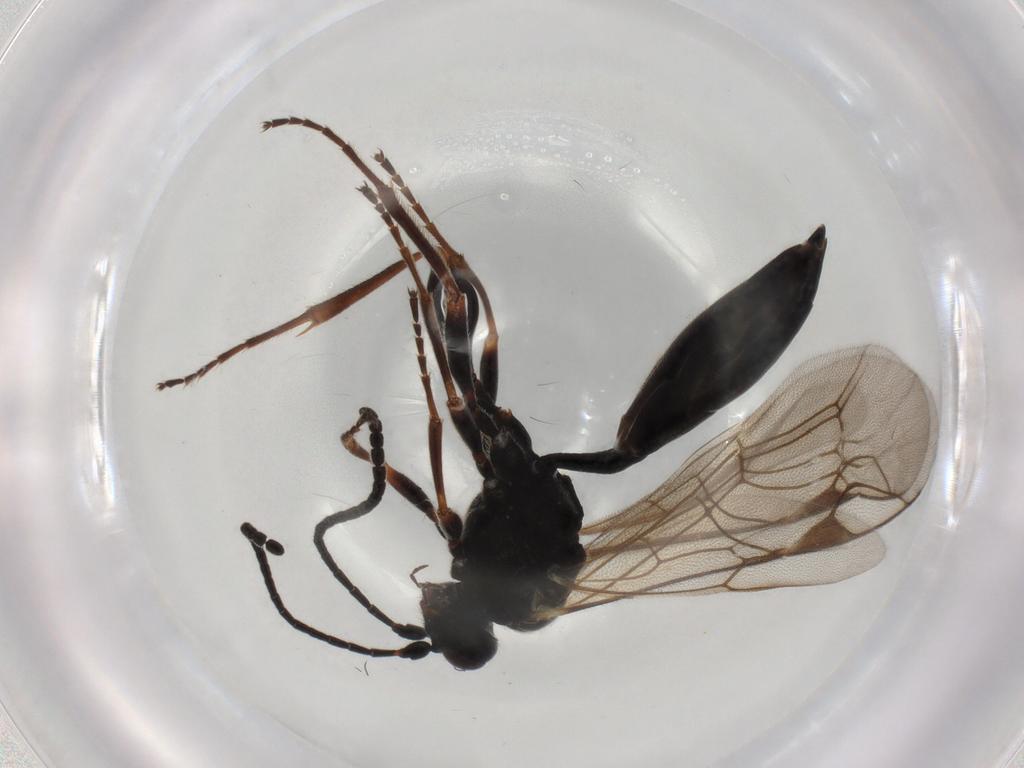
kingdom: Animalia
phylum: Arthropoda
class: Insecta
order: Hymenoptera
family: Ichneumonidae
